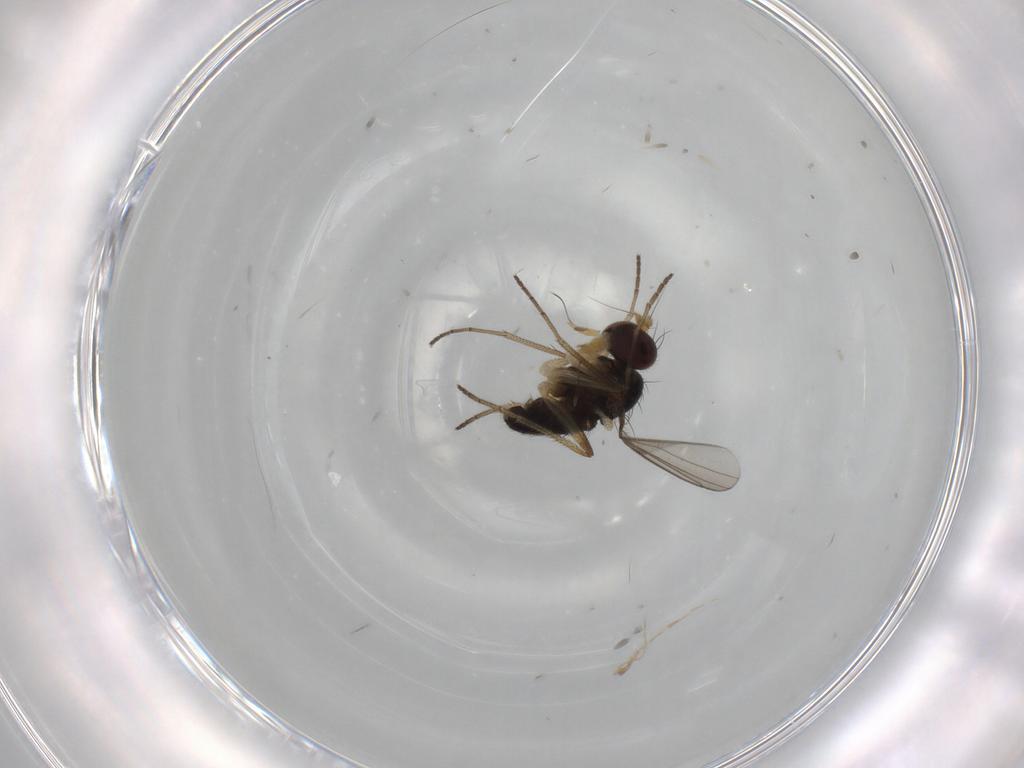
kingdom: Animalia
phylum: Arthropoda
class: Insecta
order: Diptera
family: Dolichopodidae
